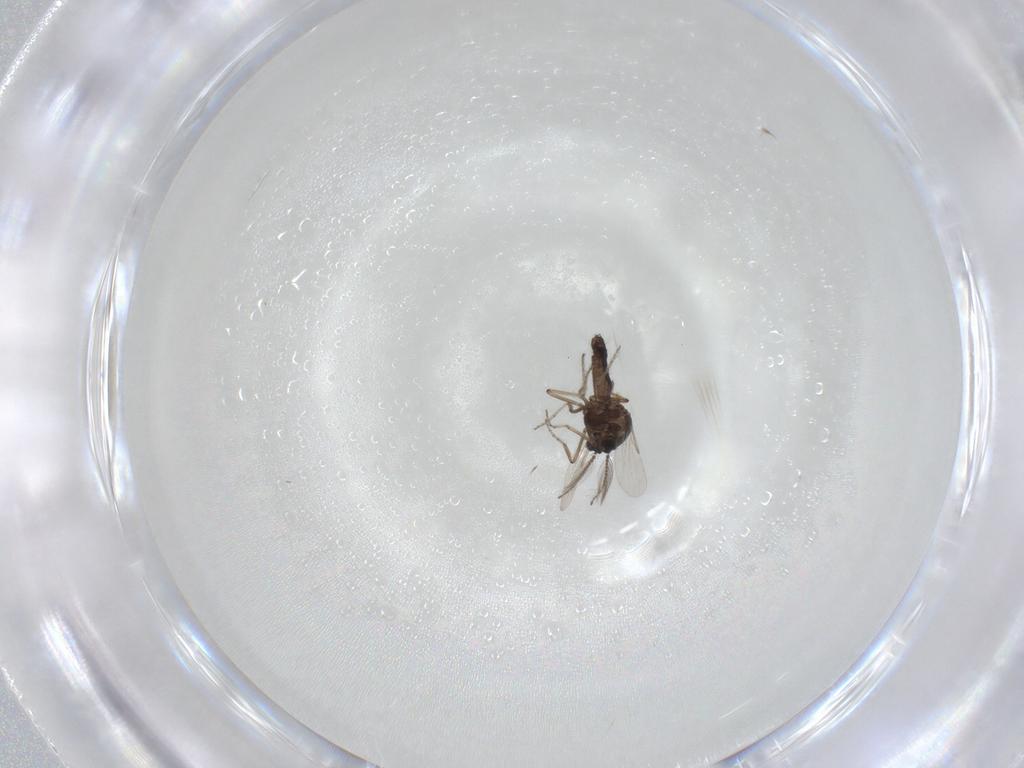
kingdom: Animalia
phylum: Arthropoda
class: Insecta
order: Diptera
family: Ceratopogonidae
